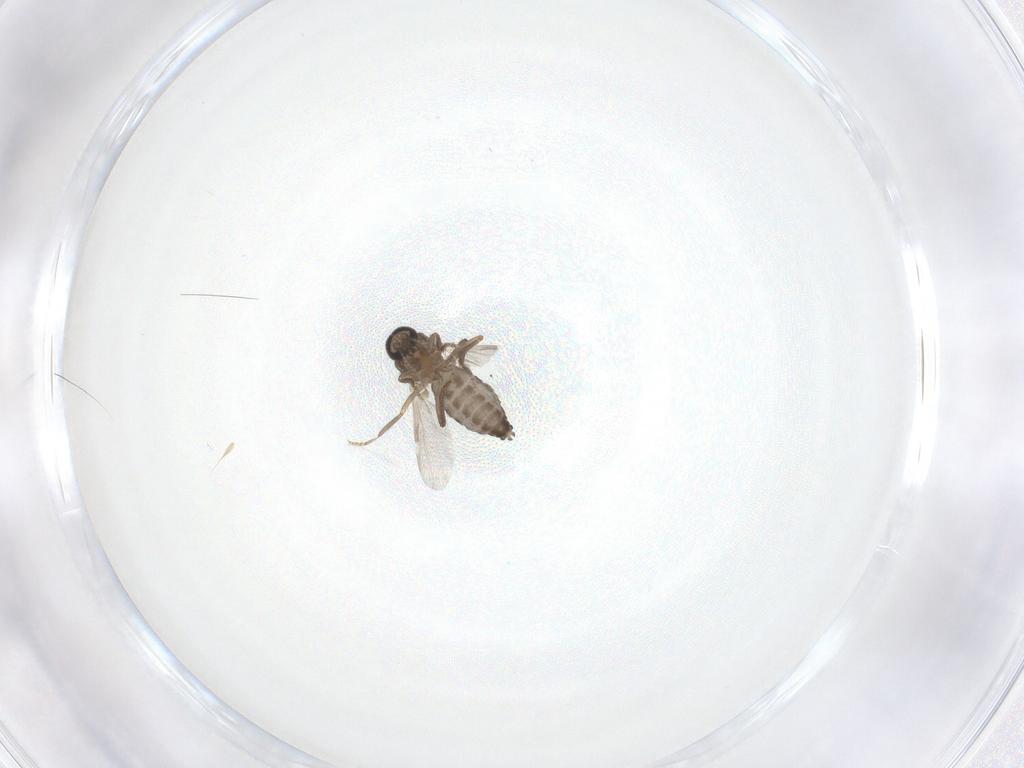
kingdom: Animalia
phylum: Arthropoda
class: Insecta
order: Diptera
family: Ceratopogonidae
